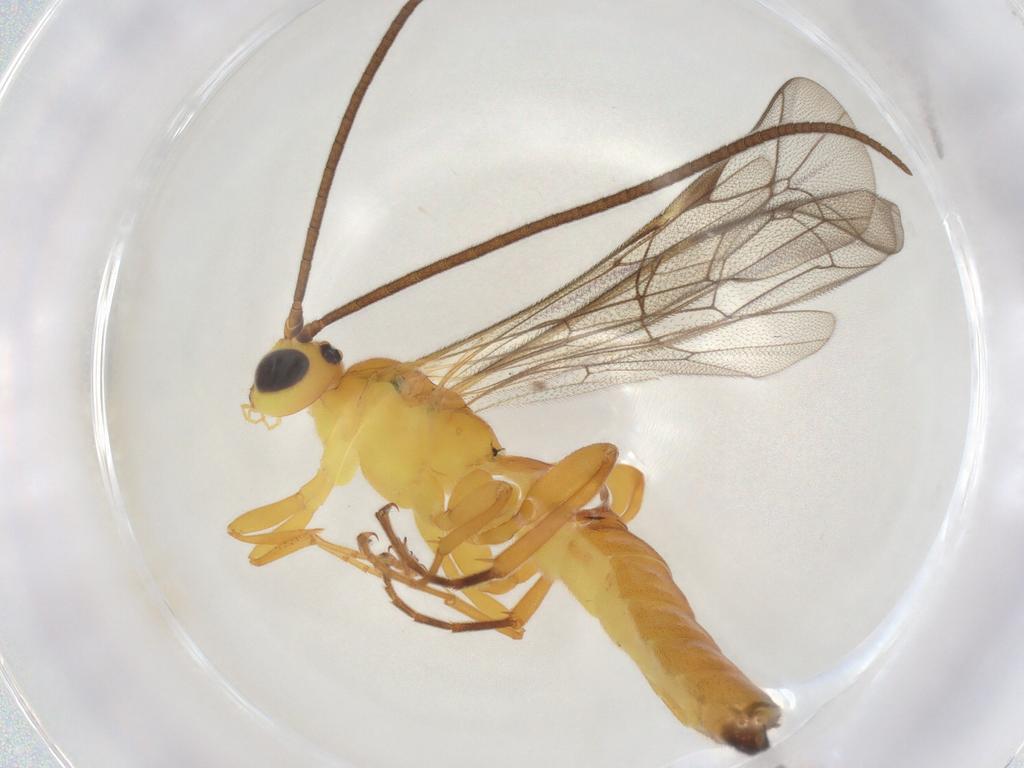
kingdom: Animalia
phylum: Arthropoda
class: Insecta
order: Hymenoptera
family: Ichneumonidae
